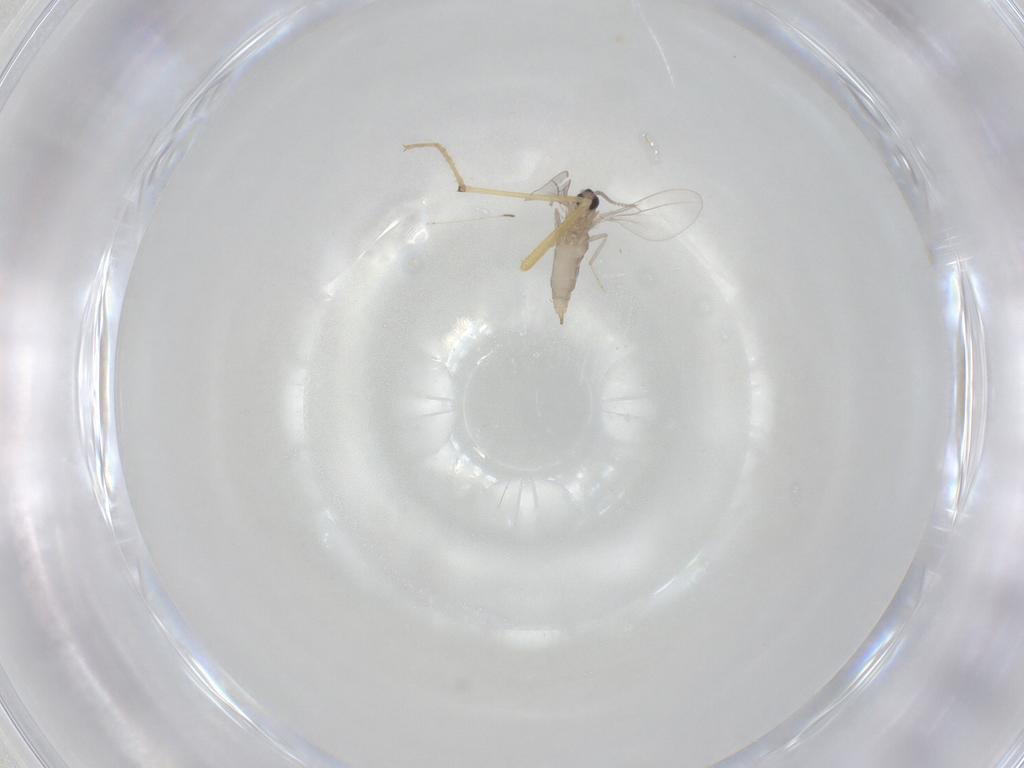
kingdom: Animalia
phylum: Arthropoda
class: Insecta
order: Diptera
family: Cecidomyiidae
